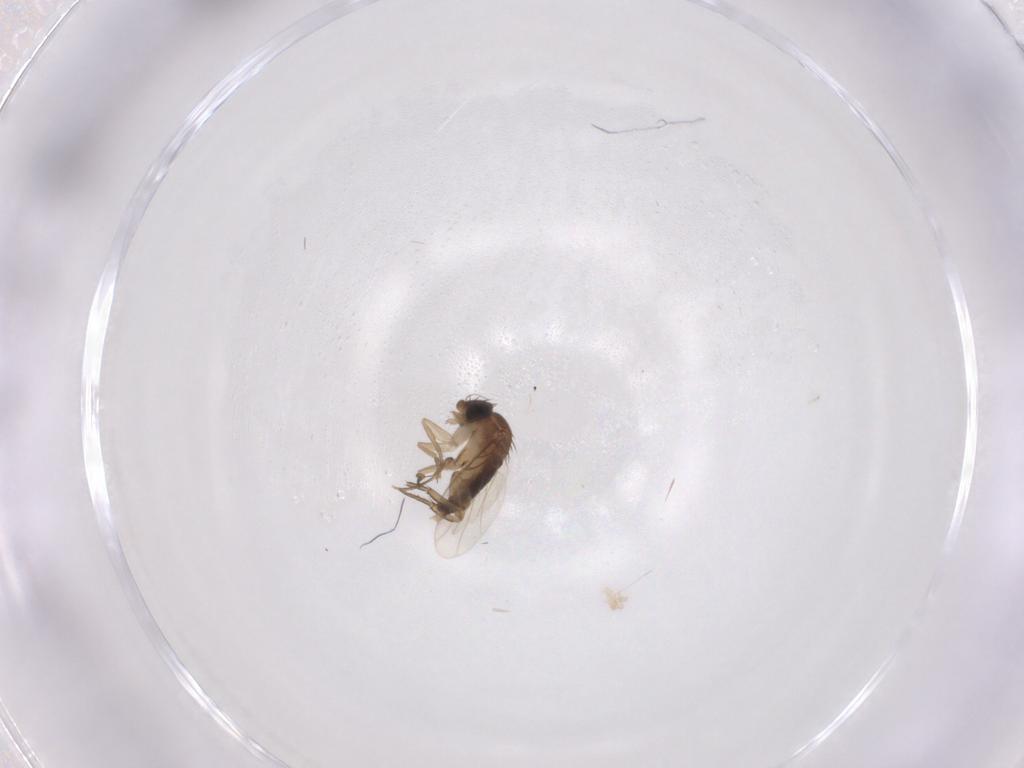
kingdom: Animalia
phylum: Arthropoda
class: Insecta
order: Diptera
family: Phoridae
